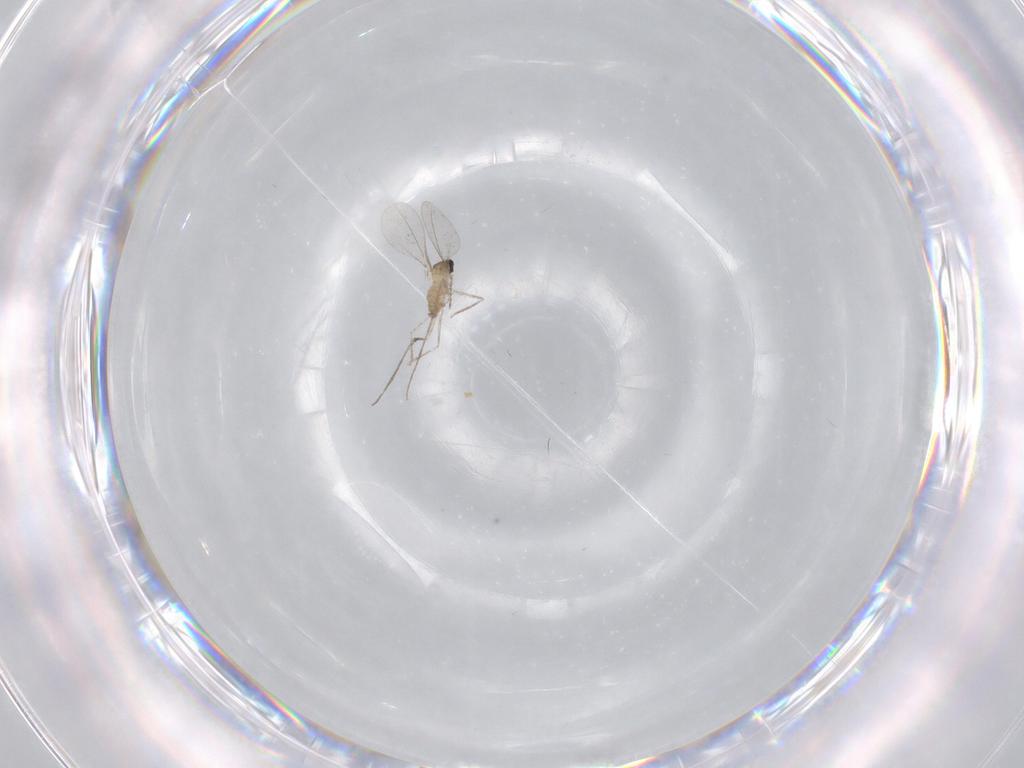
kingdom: Animalia
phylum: Arthropoda
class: Insecta
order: Diptera
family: Cecidomyiidae
